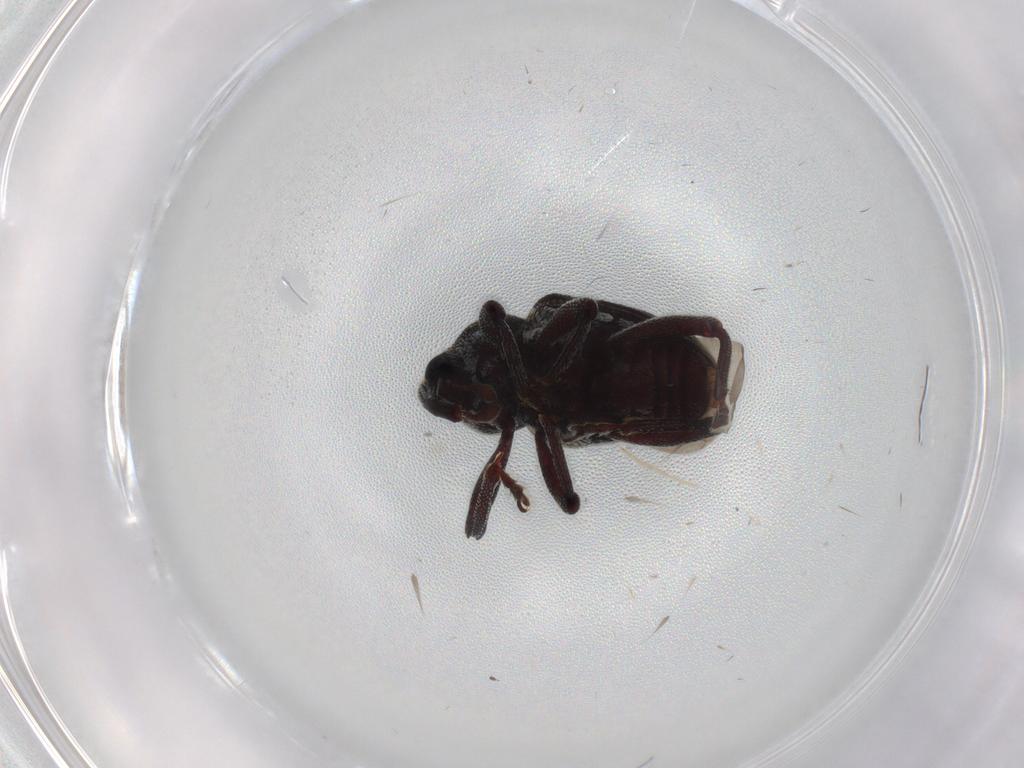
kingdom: Animalia
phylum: Arthropoda
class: Insecta
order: Coleoptera
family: Curculionidae
